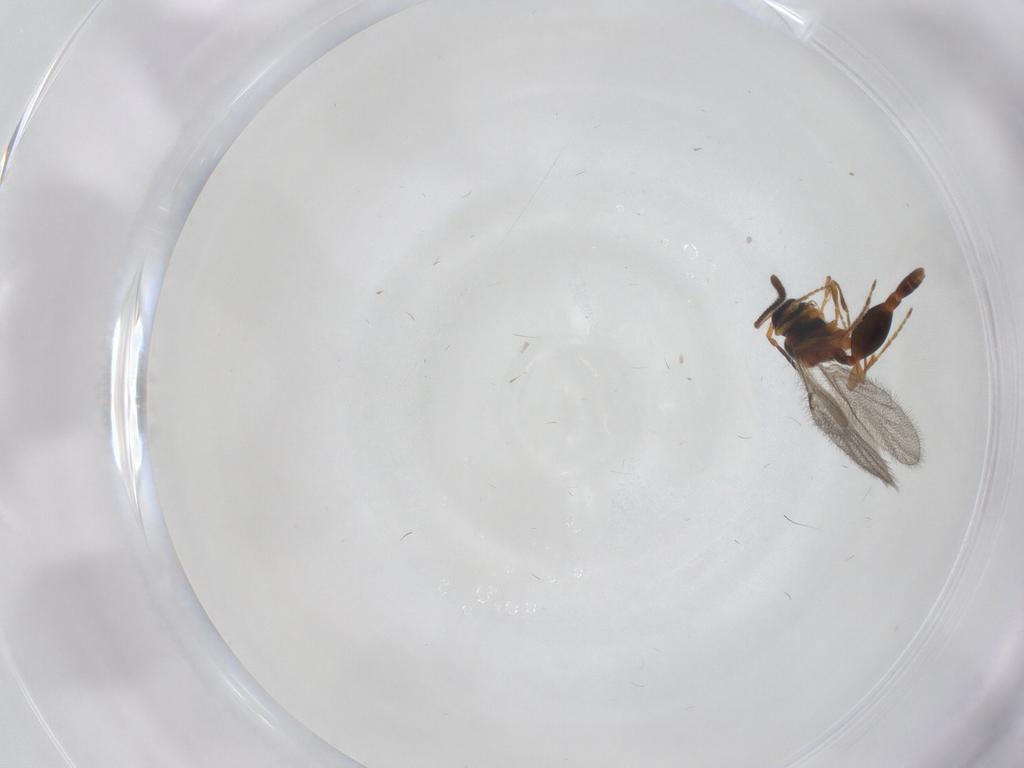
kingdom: Animalia
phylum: Arthropoda
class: Insecta
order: Hymenoptera
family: Diapriidae
